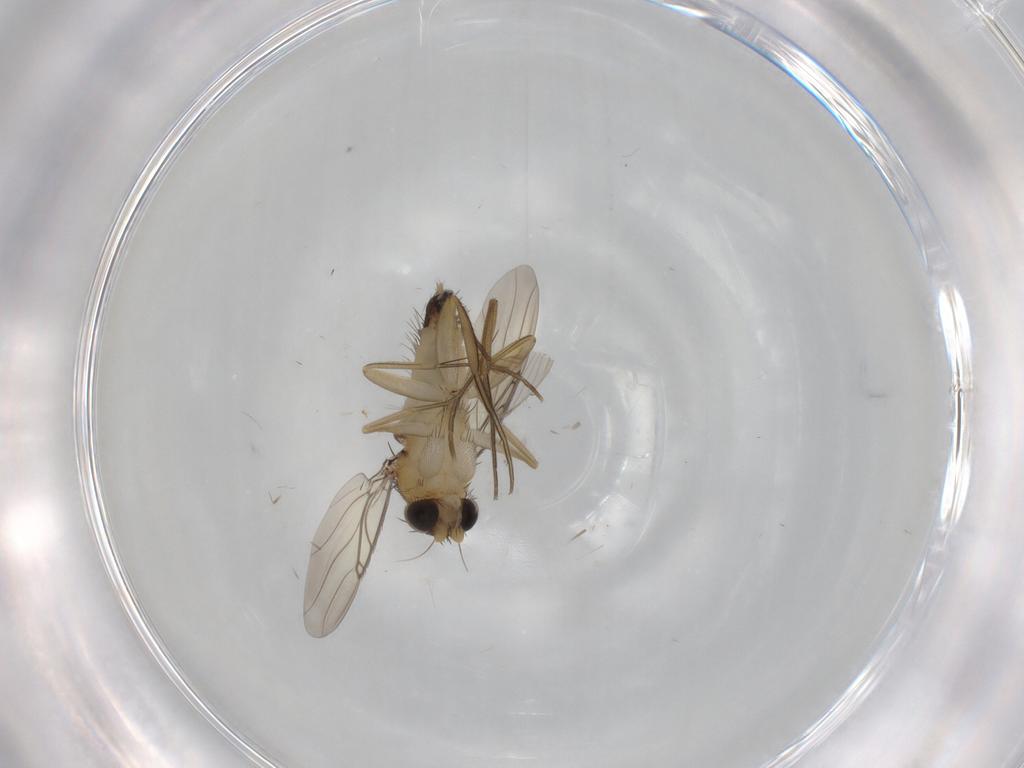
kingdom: Animalia
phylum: Arthropoda
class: Insecta
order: Diptera
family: Phoridae
